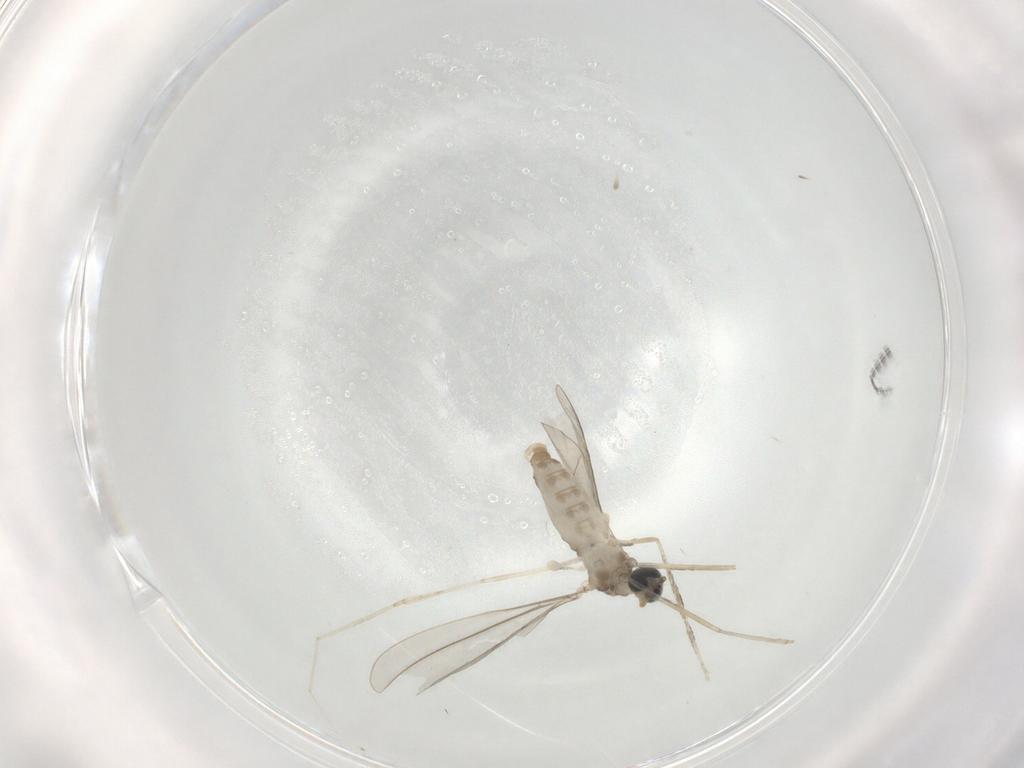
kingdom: Animalia
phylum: Arthropoda
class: Insecta
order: Diptera
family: Cecidomyiidae
